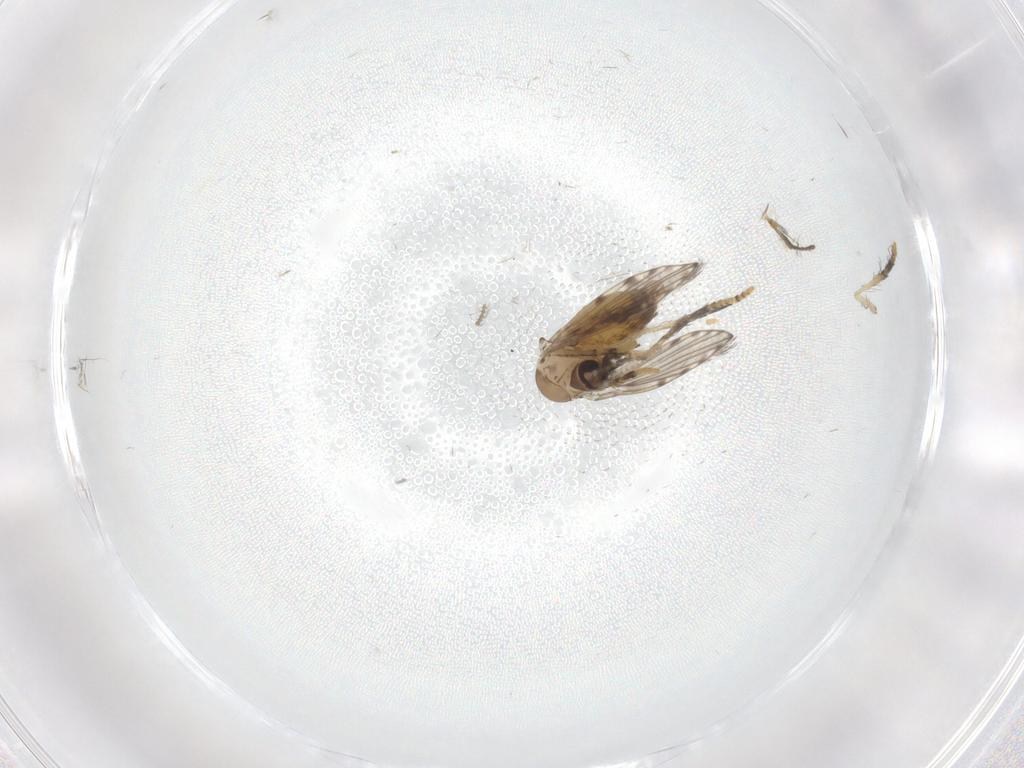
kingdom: Animalia
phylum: Arthropoda
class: Insecta
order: Diptera
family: Psychodidae
